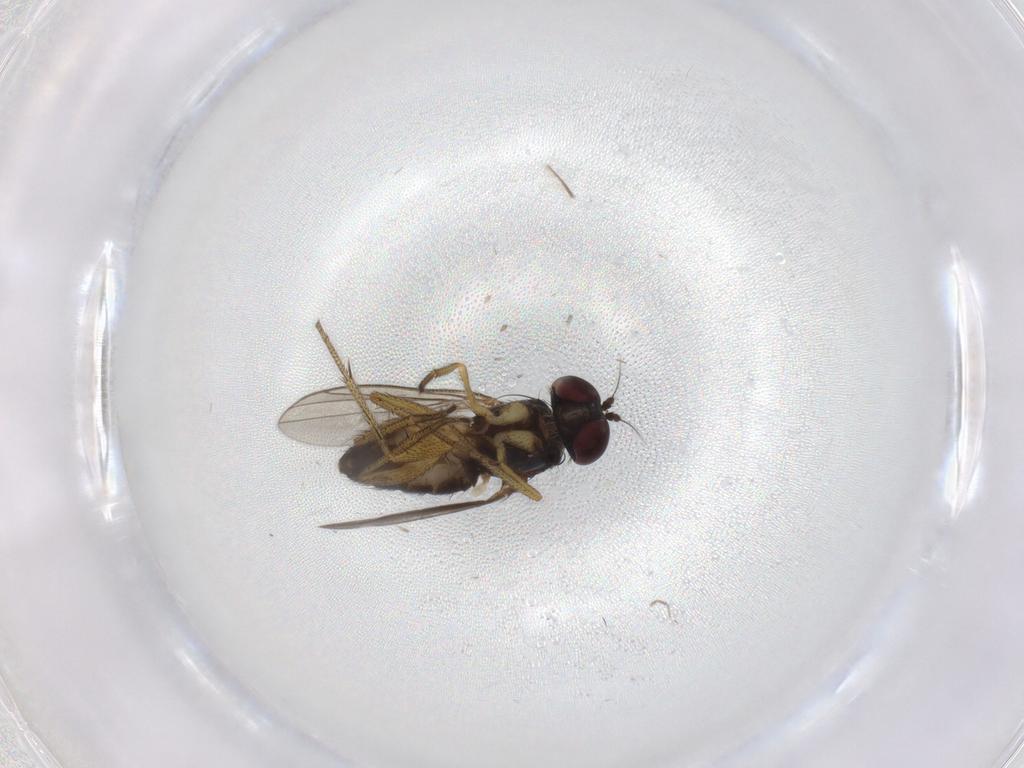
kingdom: Animalia
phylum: Arthropoda
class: Insecta
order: Diptera
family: Dolichopodidae
